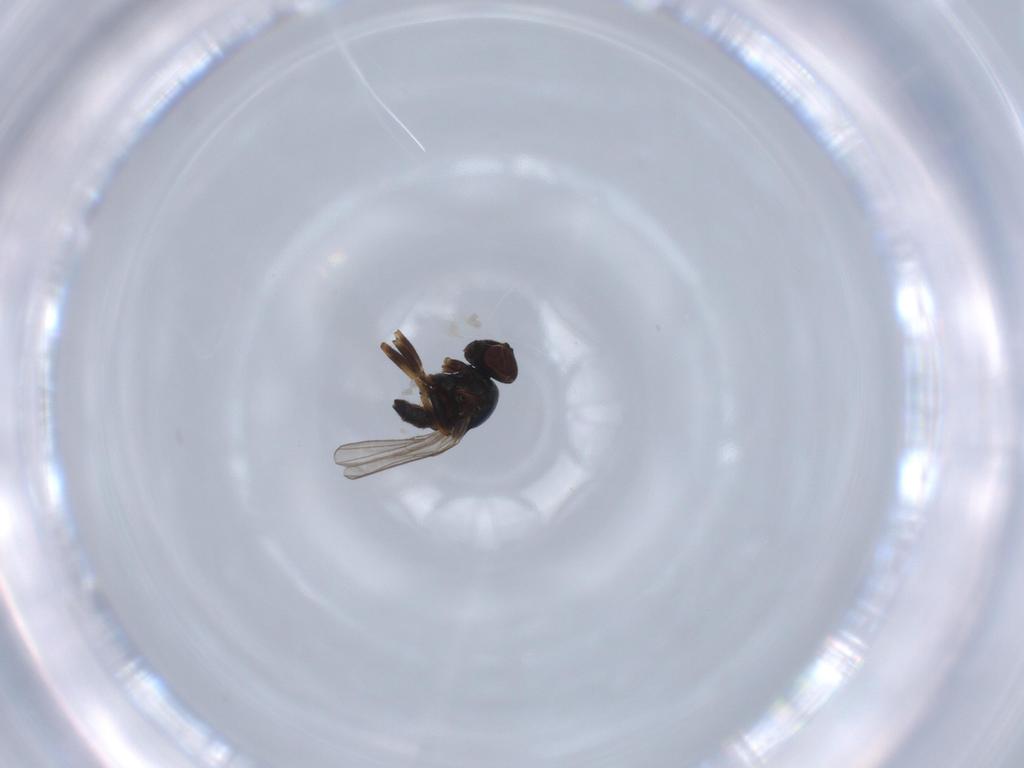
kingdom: Animalia
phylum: Arthropoda
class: Insecta
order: Diptera
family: Chloropidae
